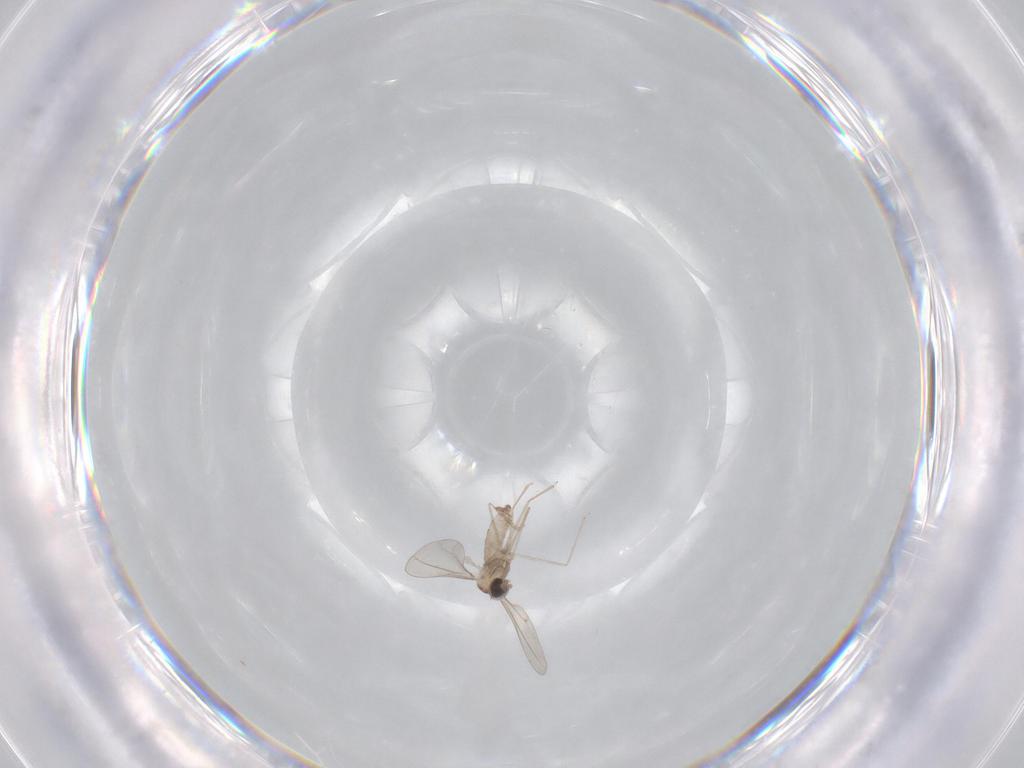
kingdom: Animalia
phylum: Arthropoda
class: Insecta
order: Diptera
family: Cecidomyiidae
